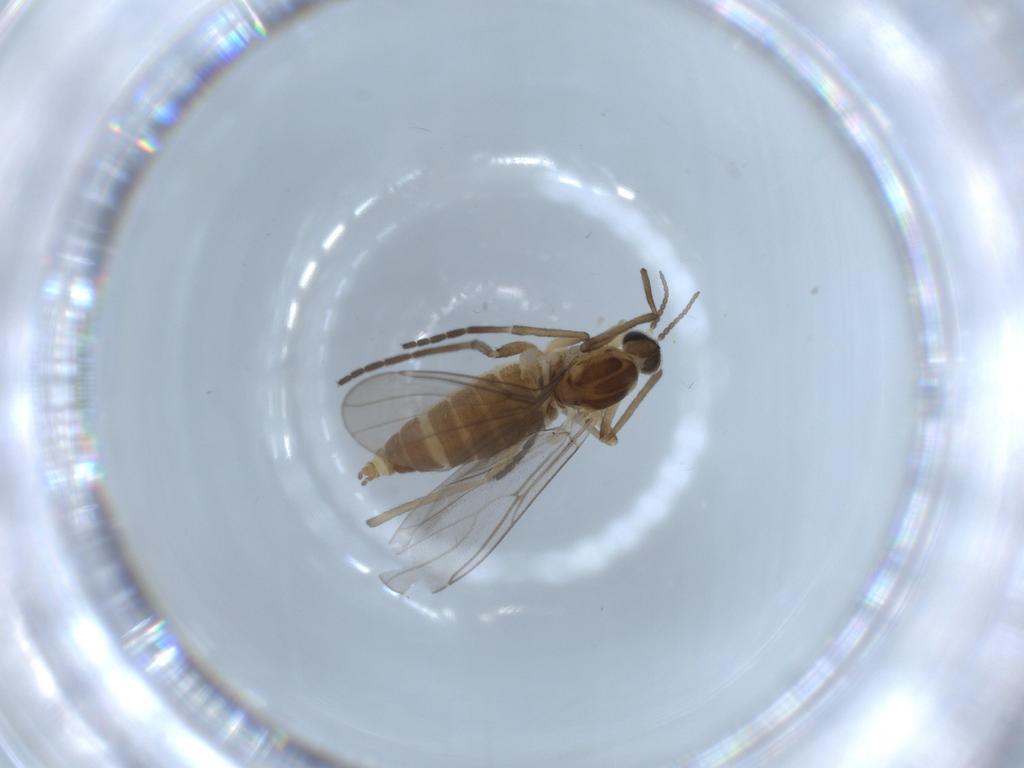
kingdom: Animalia
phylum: Arthropoda
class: Insecta
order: Diptera
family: Cecidomyiidae
